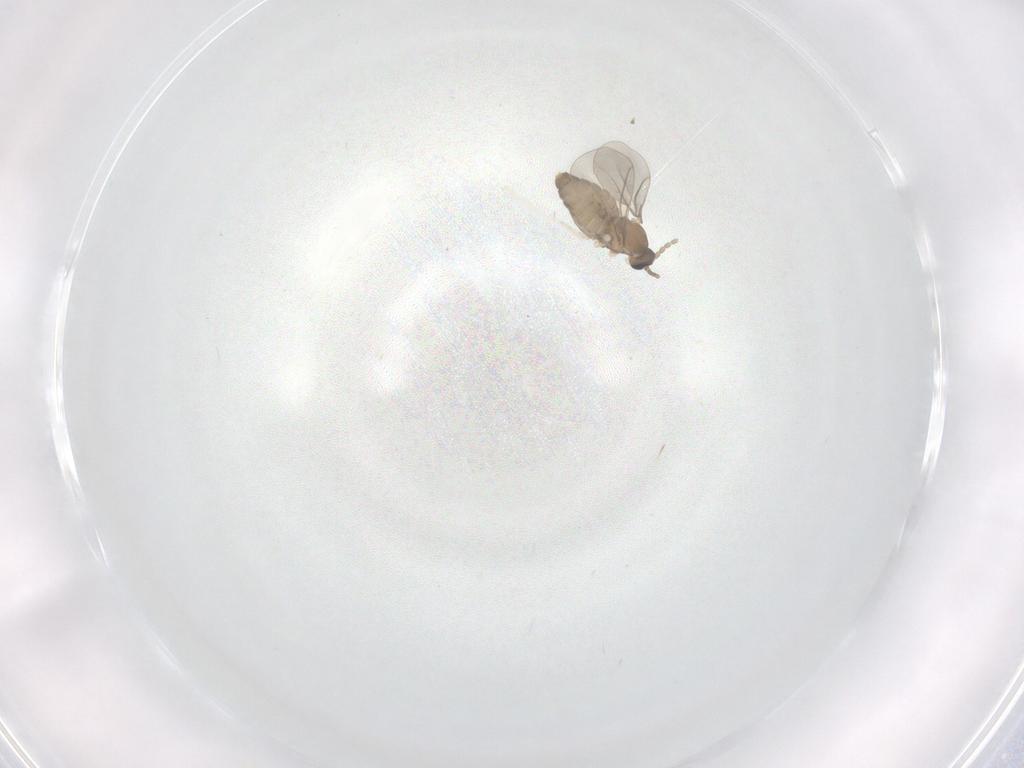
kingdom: Animalia
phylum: Arthropoda
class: Insecta
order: Diptera
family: Cecidomyiidae
